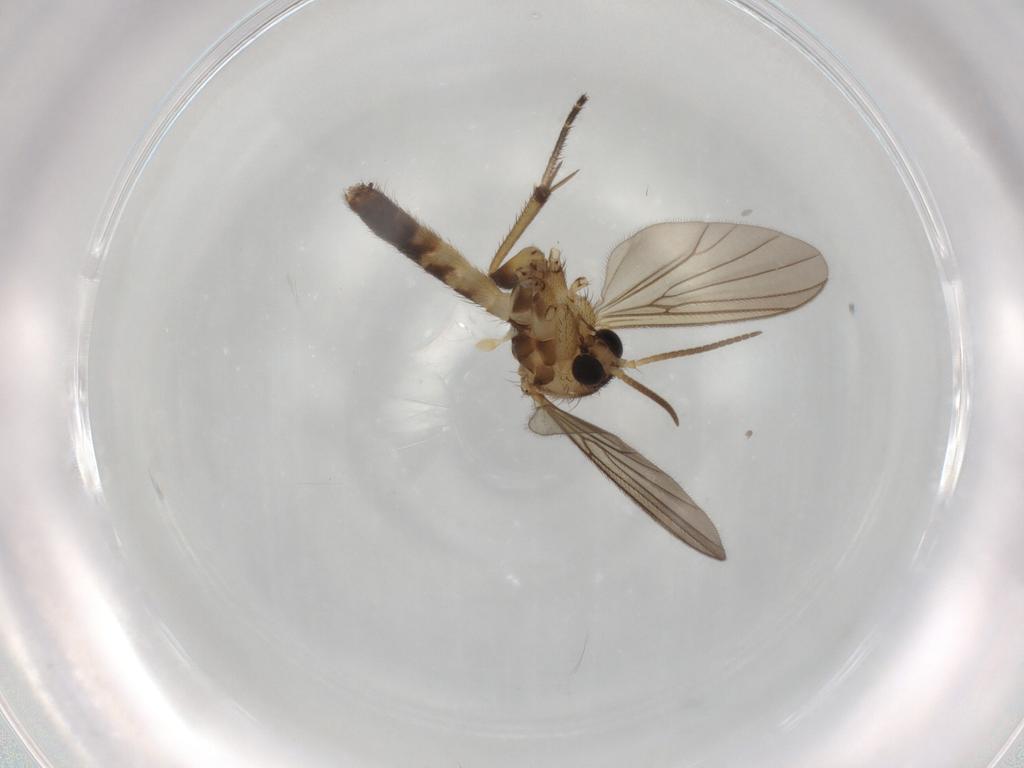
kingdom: Animalia
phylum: Arthropoda
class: Insecta
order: Diptera
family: Mycetophilidae
